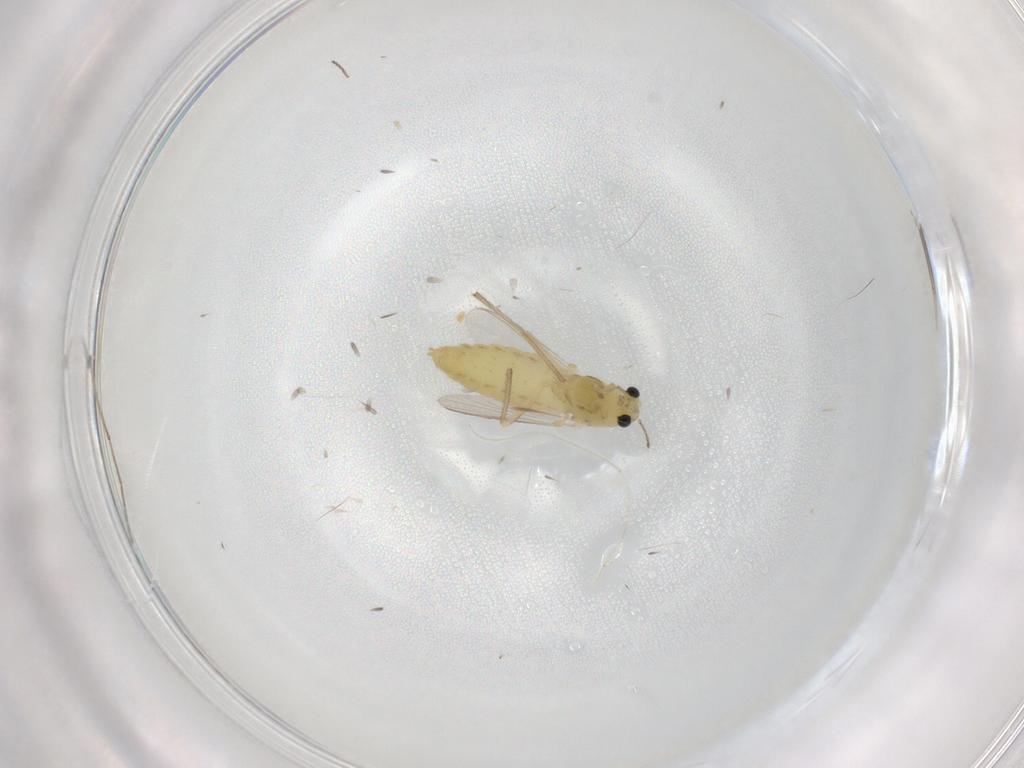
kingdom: Animalia
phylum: Arthropoda
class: Insecta
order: Diptera
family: Chironomidae
